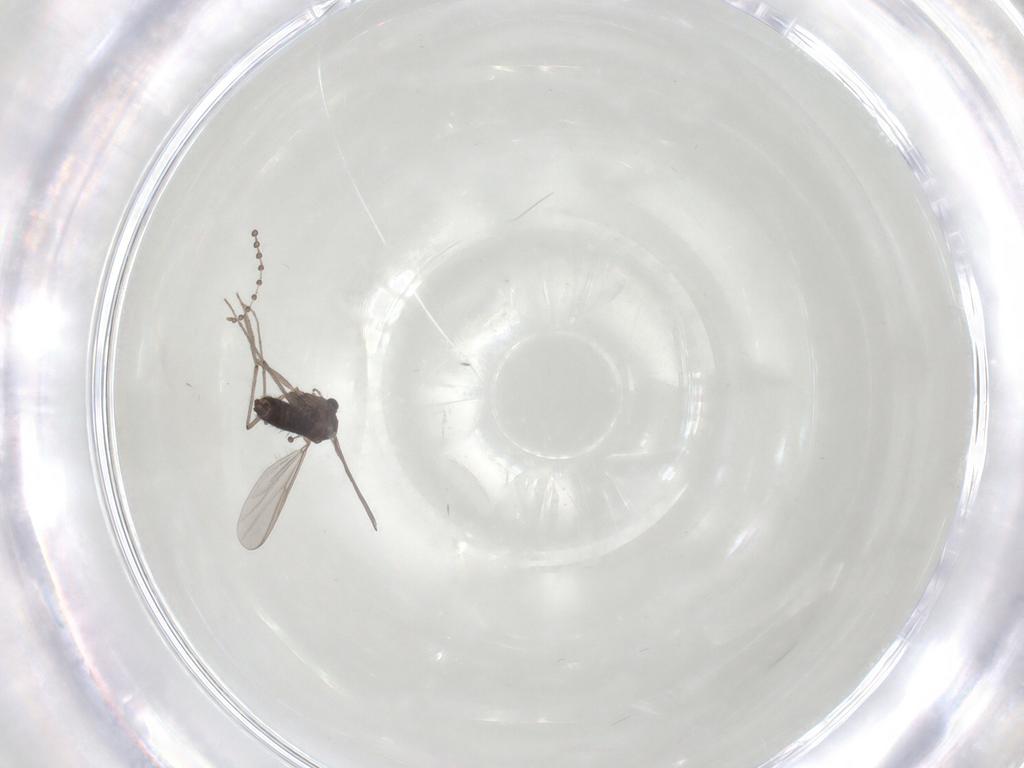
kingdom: Animalia
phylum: Arthropoda
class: Insecta
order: Diptera
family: Chironomidae
